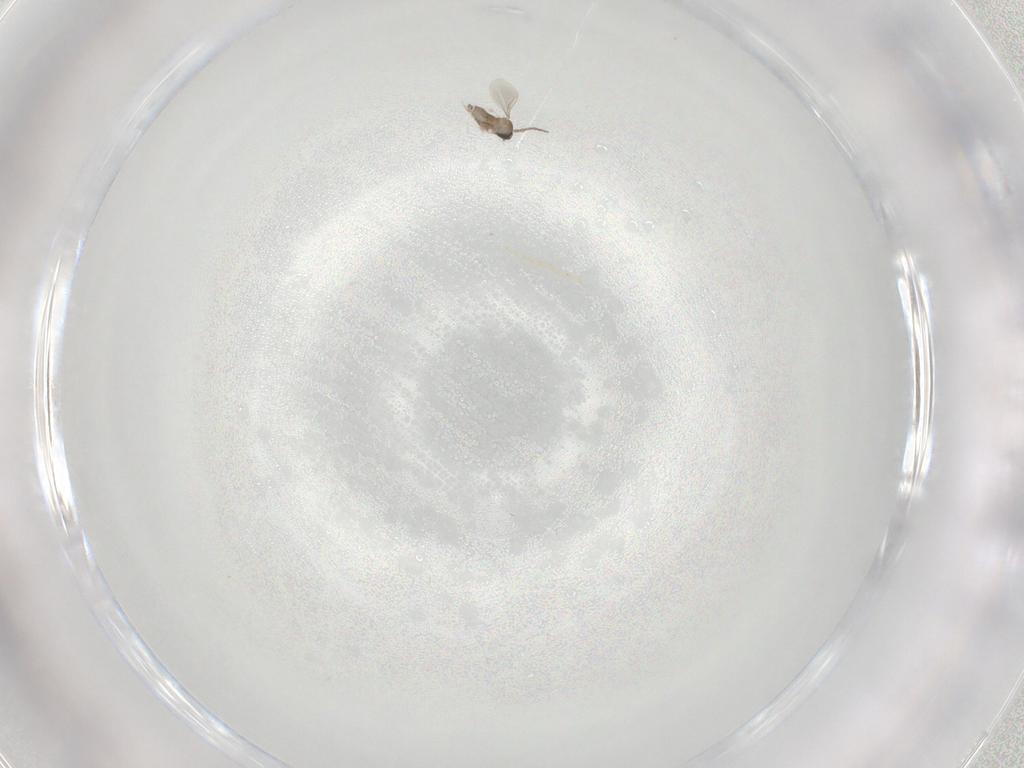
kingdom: Animalia
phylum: Arthropoda
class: Insecta
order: Diptera
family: Cecidomyiidae
